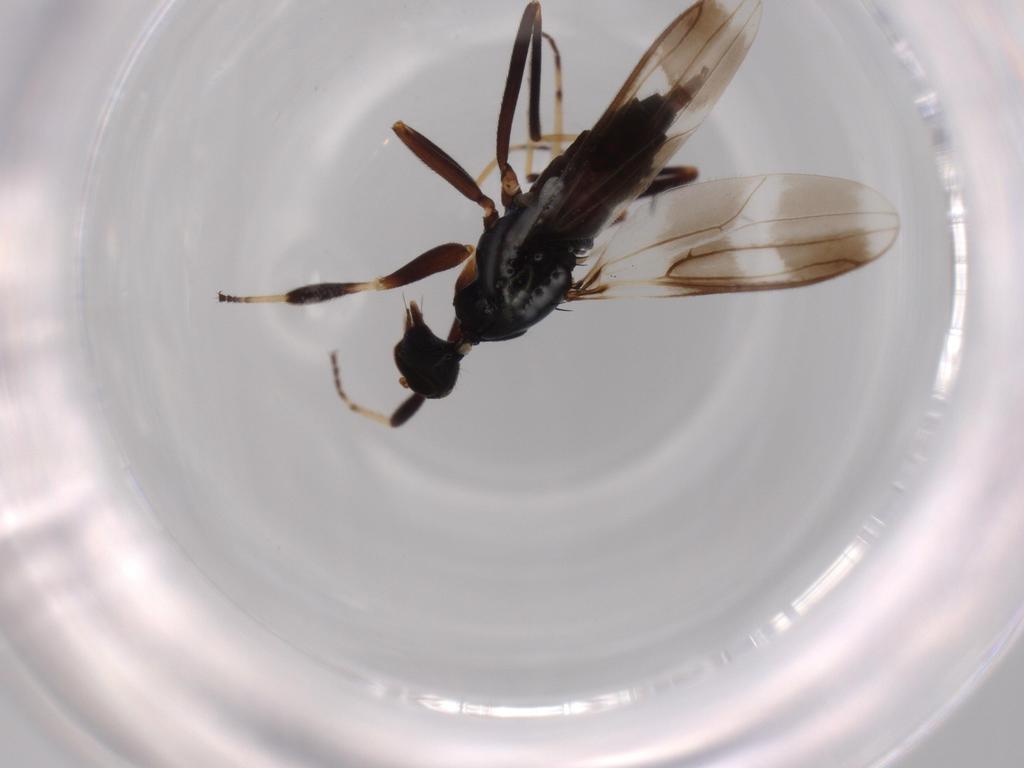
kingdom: Animalia
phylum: Arthropoda
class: Insecta
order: Diptera
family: Hybotidae
